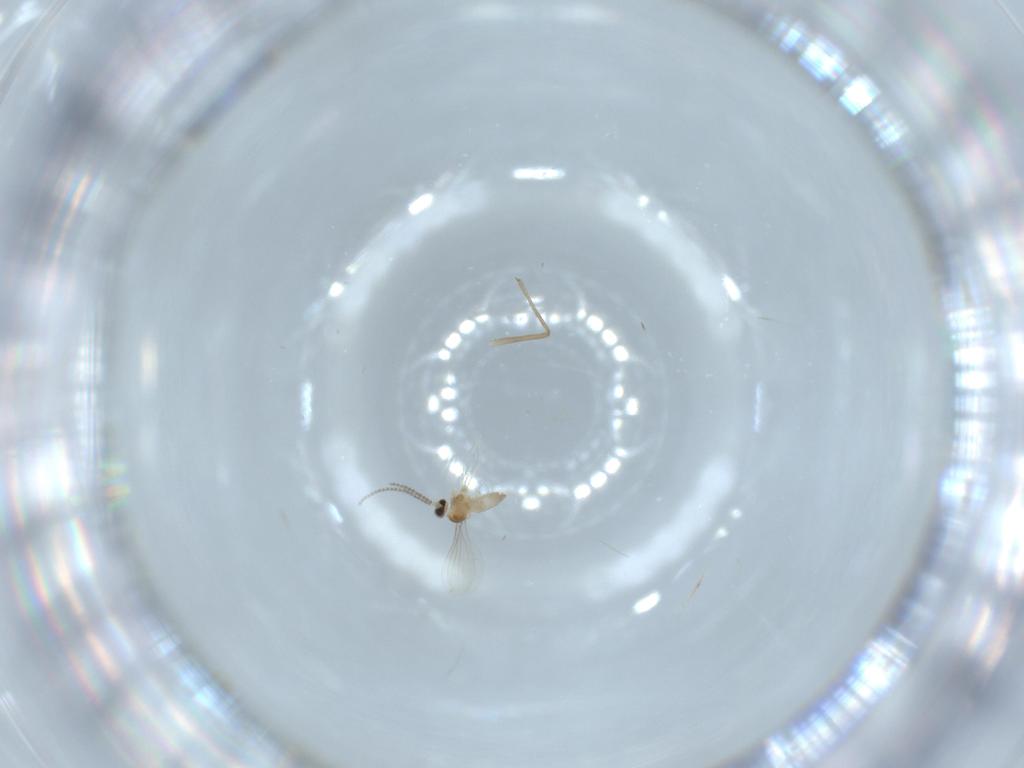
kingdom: Animalia
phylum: Arthropoda
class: Insecta
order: Diptera
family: Cecidomyiidae
